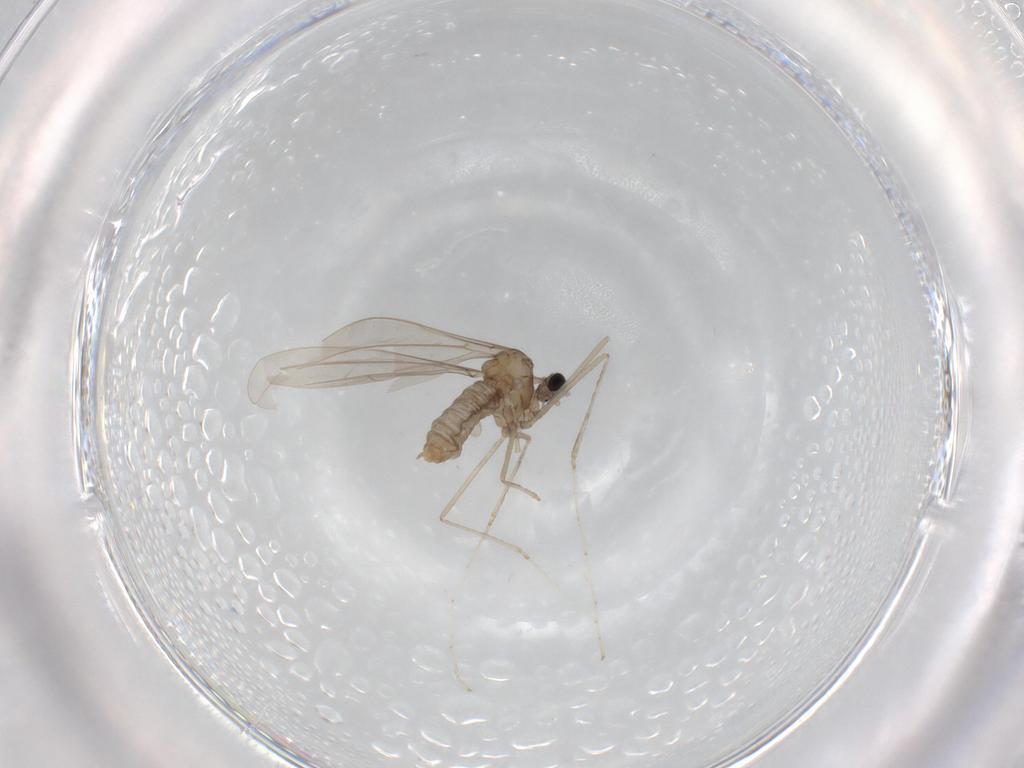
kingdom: Animalia
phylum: Arthropoda
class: Insecta
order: Diptera
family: Cecidomyiidae
